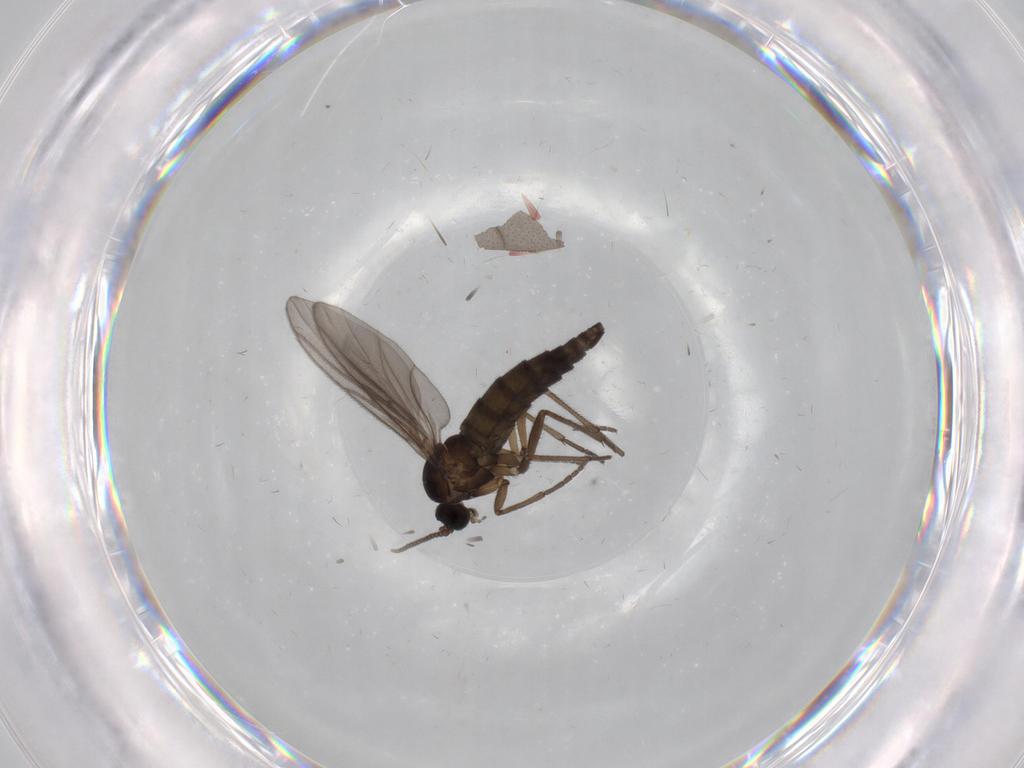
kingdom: Animalia
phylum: Arthropoda
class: Insecta
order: Diptera
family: Sciaridae
